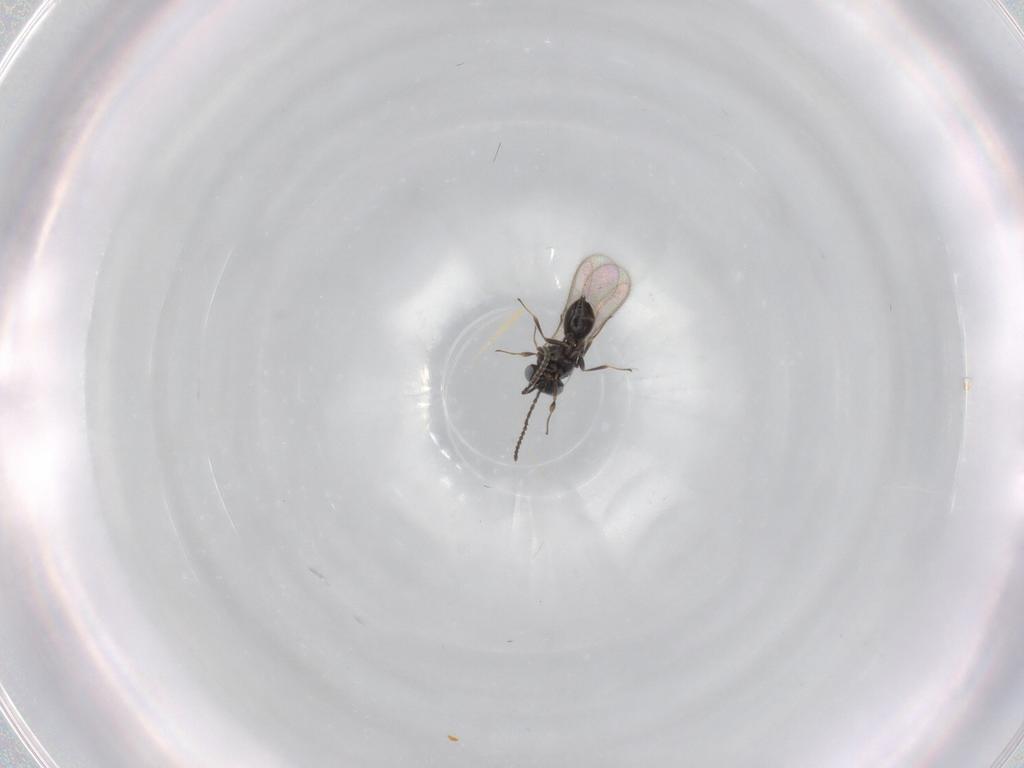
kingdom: Animalia
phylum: Arthropoda
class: Insecta
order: Hymenoptera
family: Scelionidae
